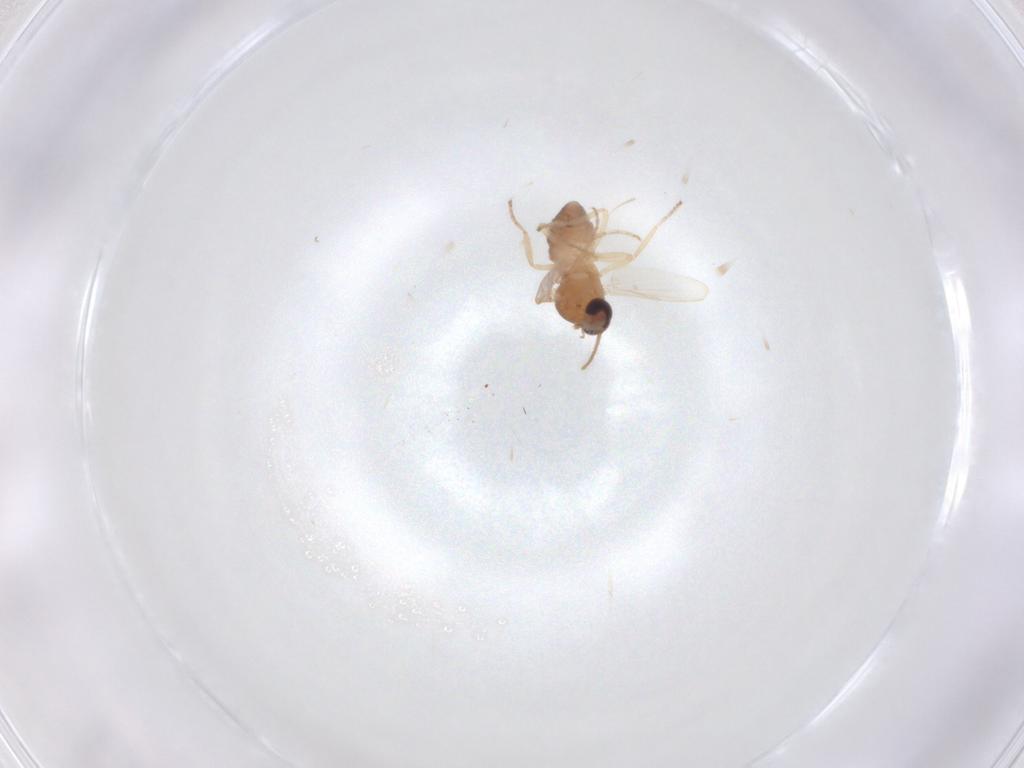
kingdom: Animalia
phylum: Arthropoda
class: Insecta
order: Diptera
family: Agromyzidae
